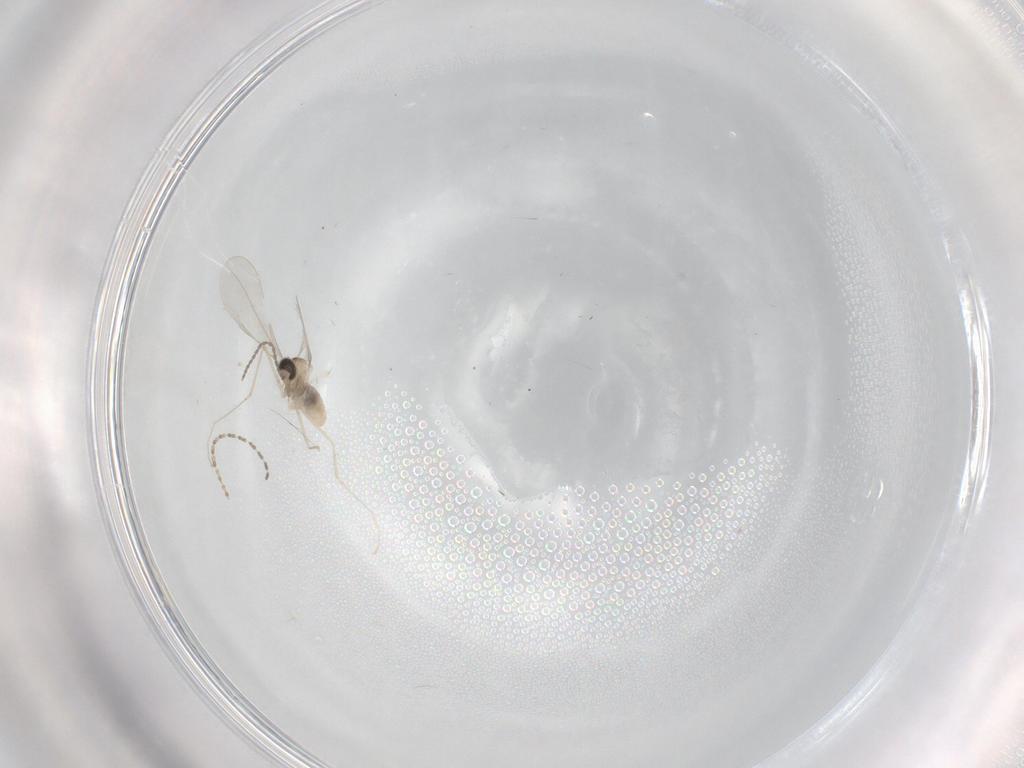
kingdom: Animalia
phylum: Arthropoda
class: Insecta
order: Diptera
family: Cecidomyiidae
